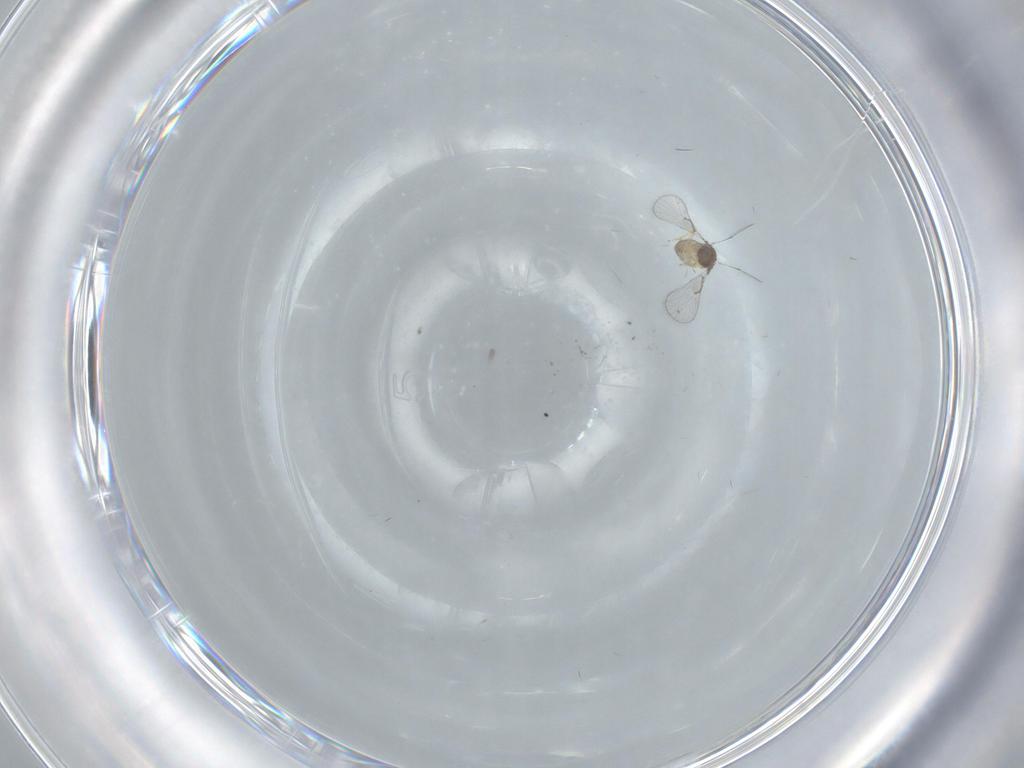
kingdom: Animalia
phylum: Arthropoda
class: Insecta
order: Hymenoptera
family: Trichogrammatidae
